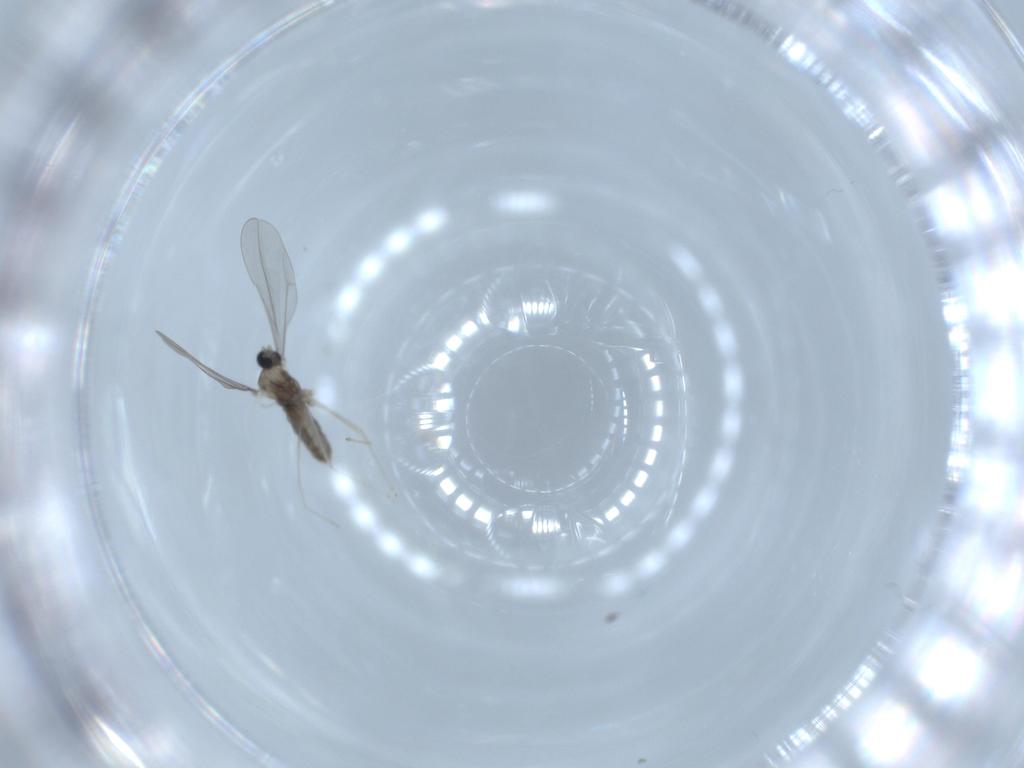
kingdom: Animalia
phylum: Arthropoda
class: Insecta
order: Diptera
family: Cecidomyiidae
